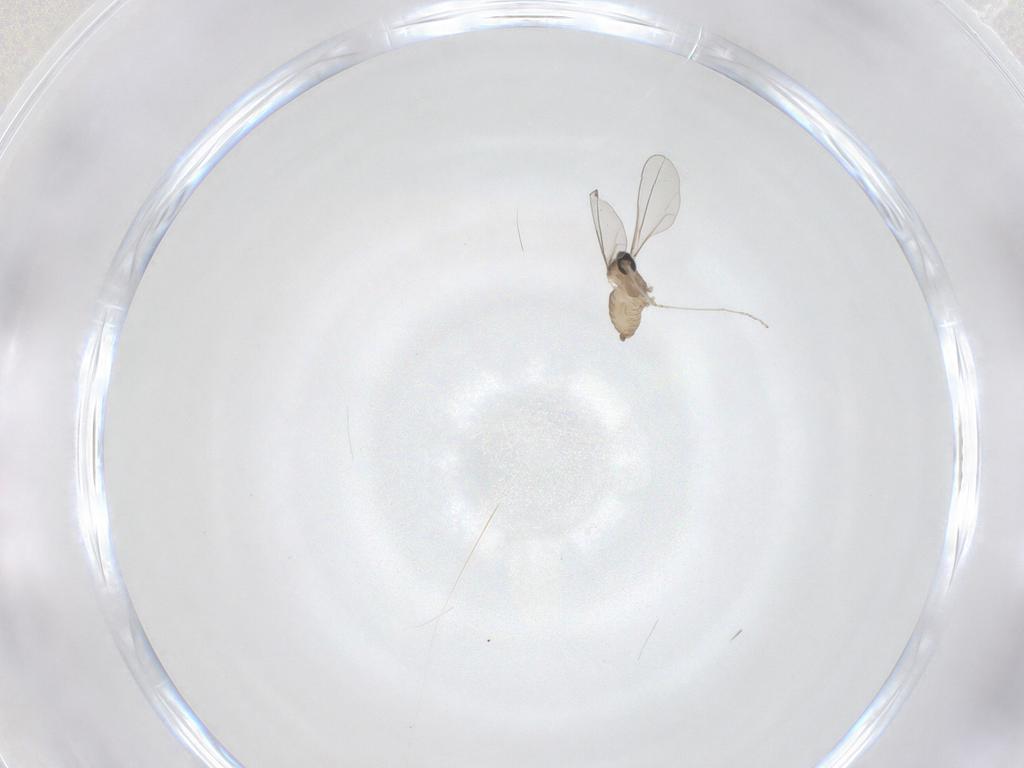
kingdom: Animalia
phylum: Arthropoda
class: Insecta
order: Diptera
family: Cecidomyiidae
